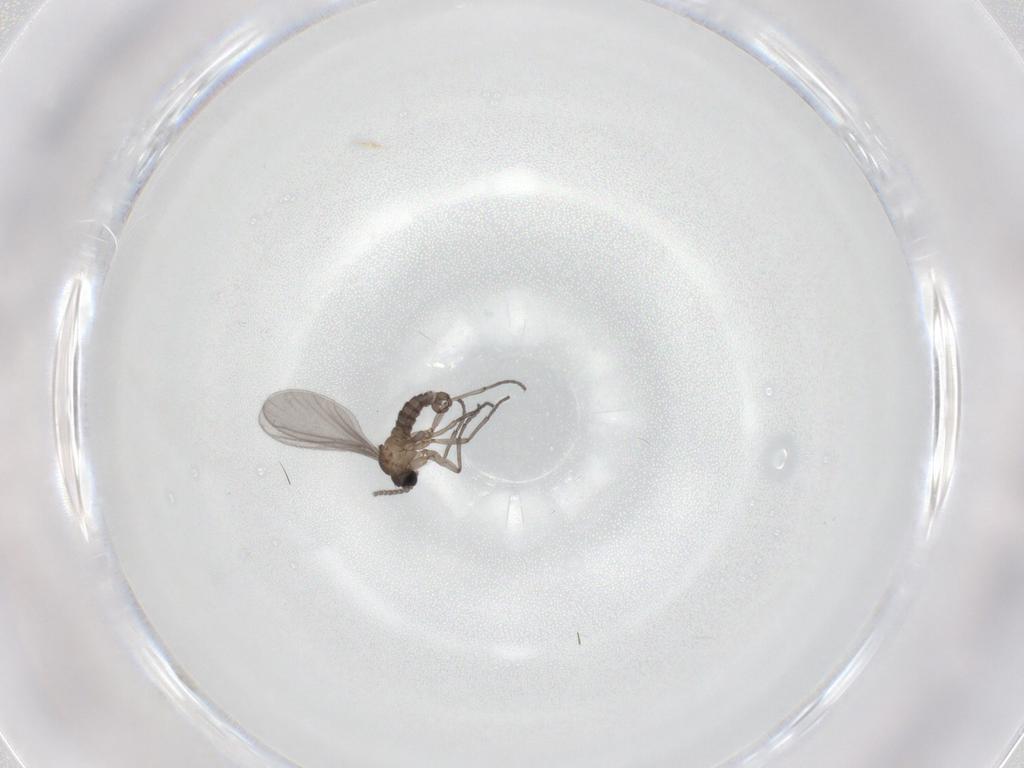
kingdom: Animalia
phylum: Arthropoda
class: Insecta
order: Diptera
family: Sciaridae
